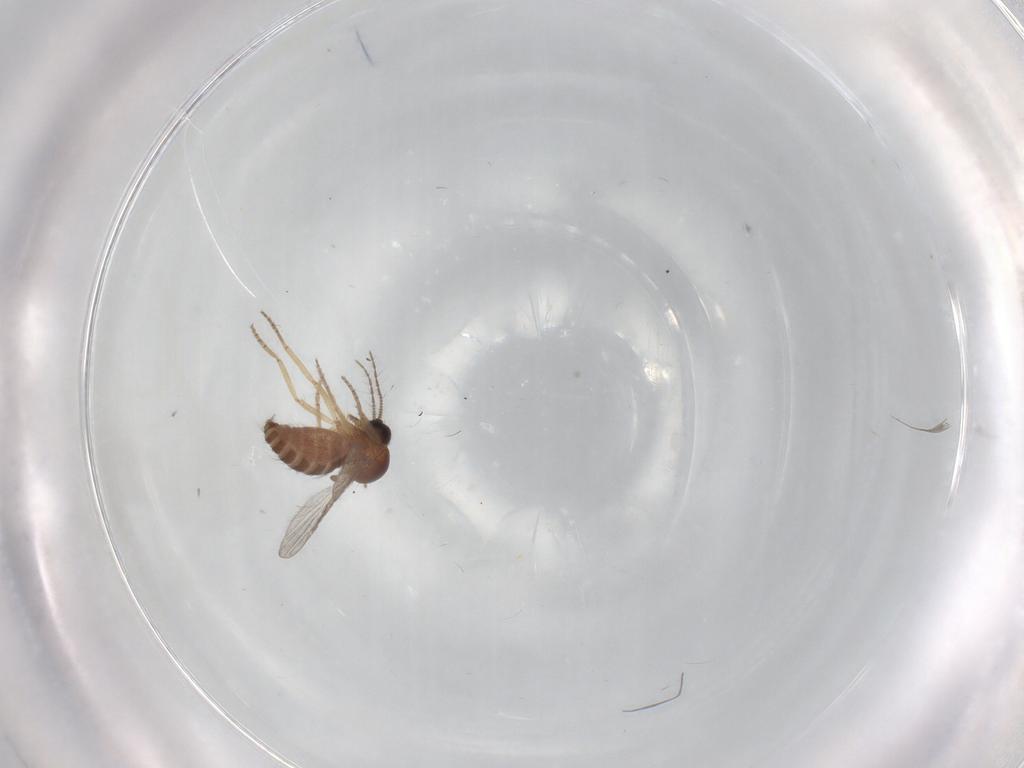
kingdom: Animalia
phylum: Arthropoda
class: Insecta
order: Diptera
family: Ceratopogonidae
